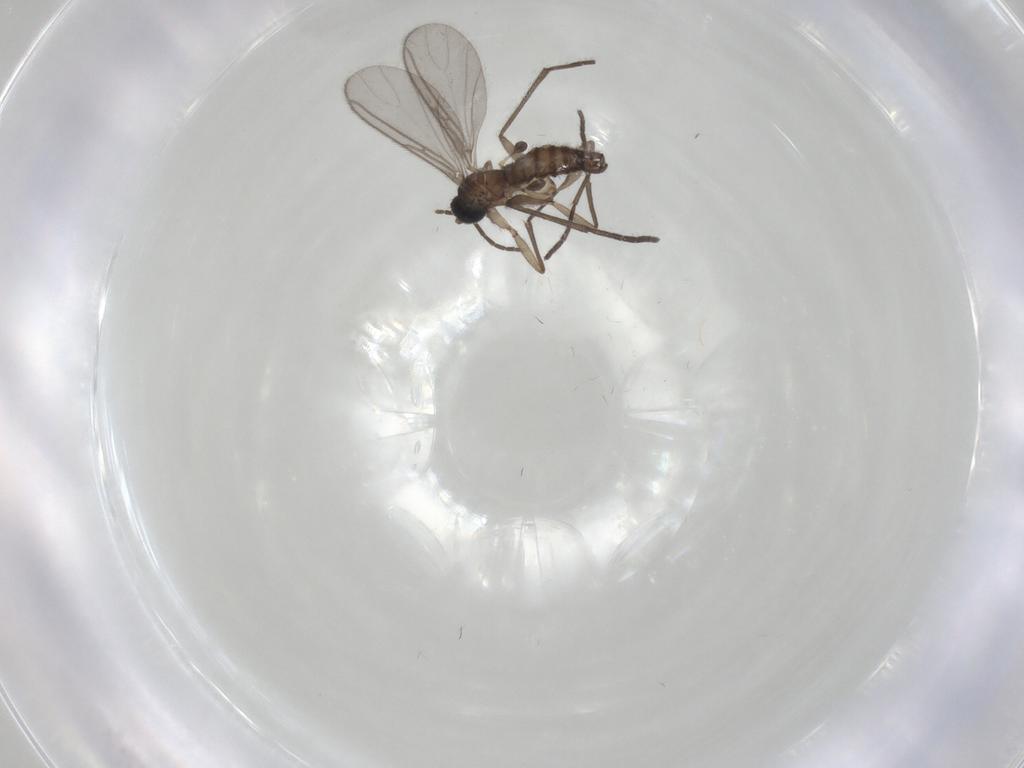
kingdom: Animalia
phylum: Arthropoda
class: Insecta
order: Diptera
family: Sciaridae
